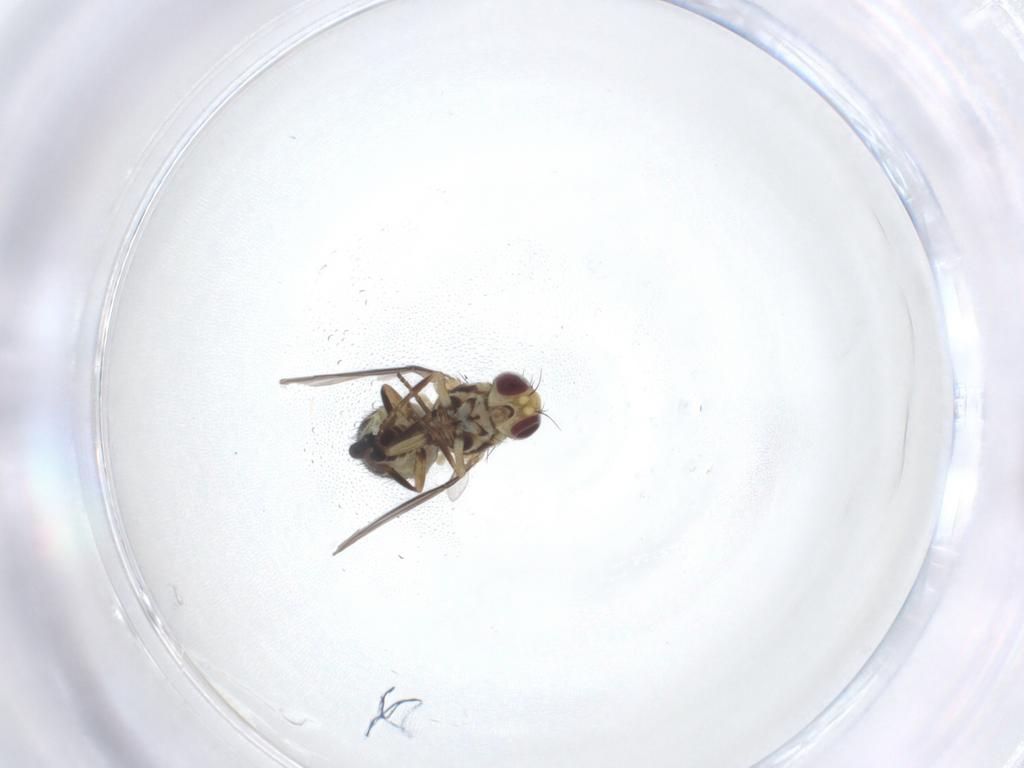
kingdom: Animalia
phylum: Arthropoda
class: Insecta
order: Diptera
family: Agromyzidae
